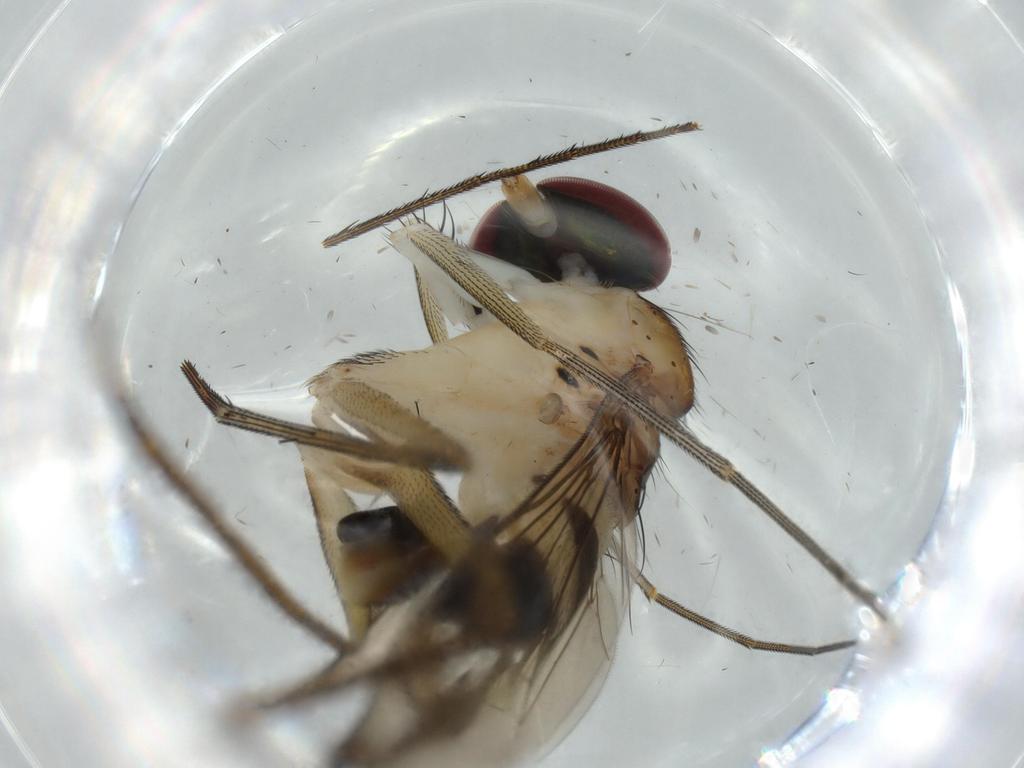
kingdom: Animalia
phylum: Arthropoda
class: Insecta
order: Diptera
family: Dolichopodidae
